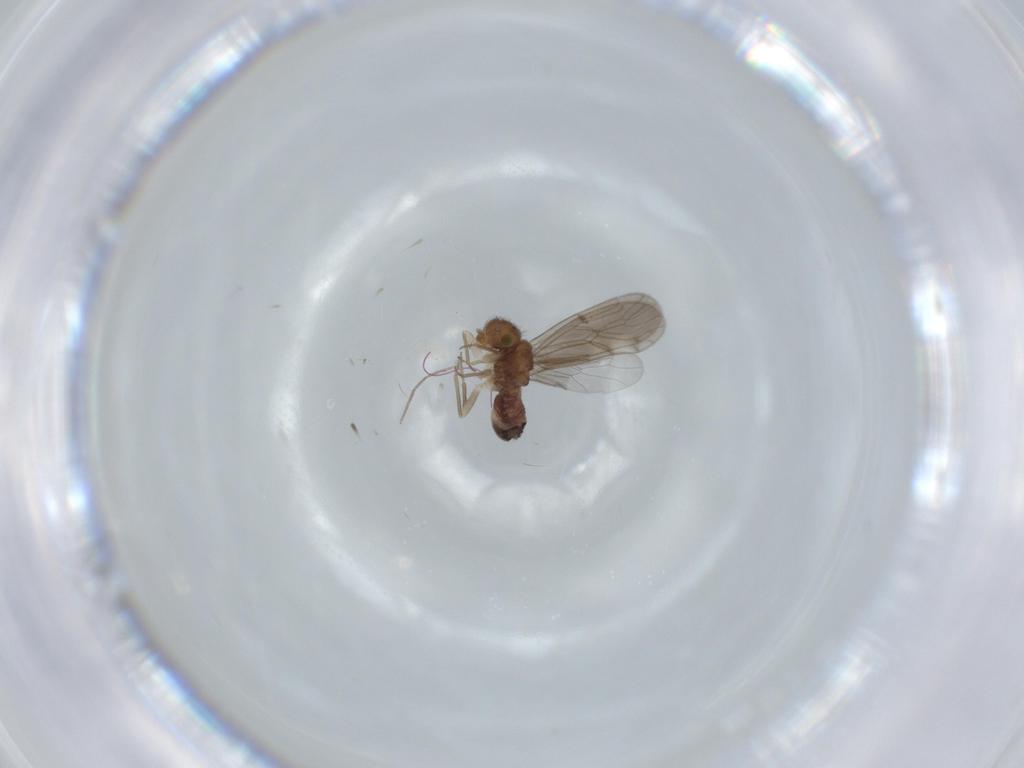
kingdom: Animalia
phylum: Arthropoda
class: Insecta
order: Psocodea
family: Ectopsocidae
